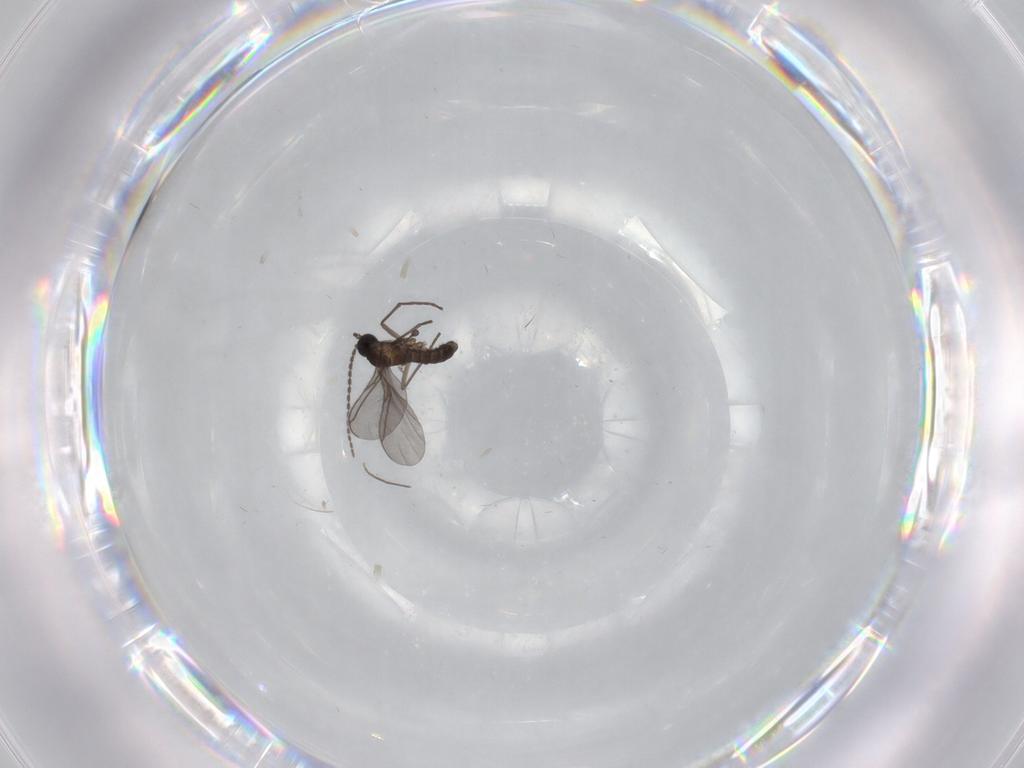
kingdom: Animalia
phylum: Arthropoda
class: Insecta
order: Diptera
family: Chironomidae
